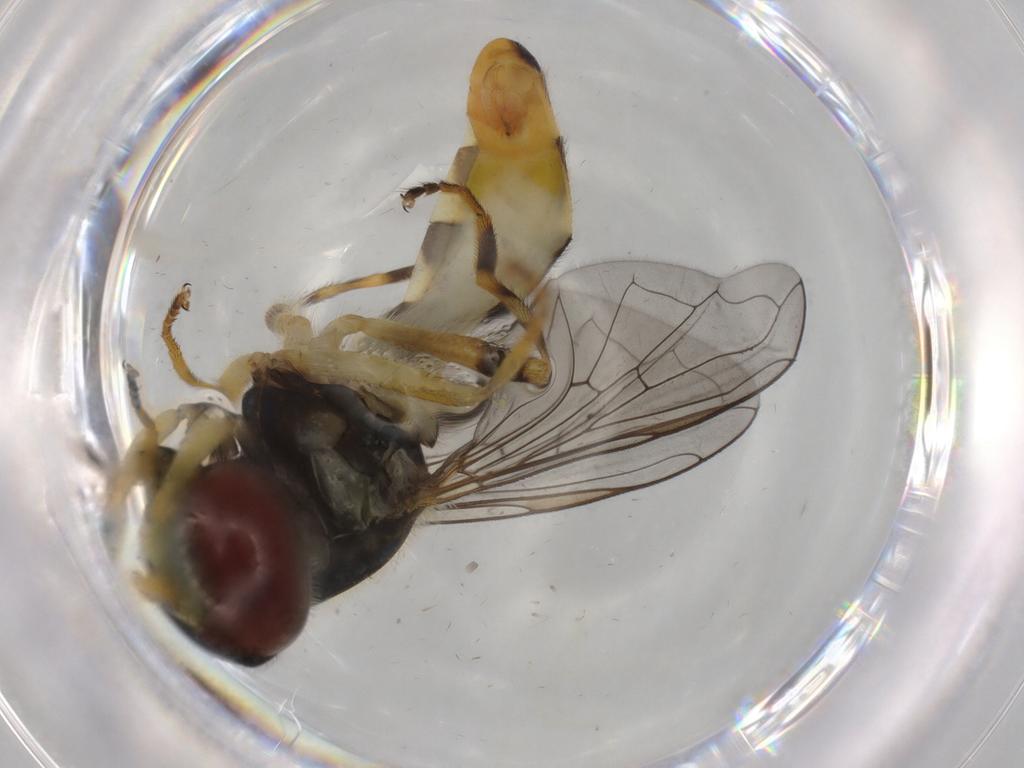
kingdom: Animalia
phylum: Arthropoda
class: Insecta
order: Diptera
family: Syrphidae
